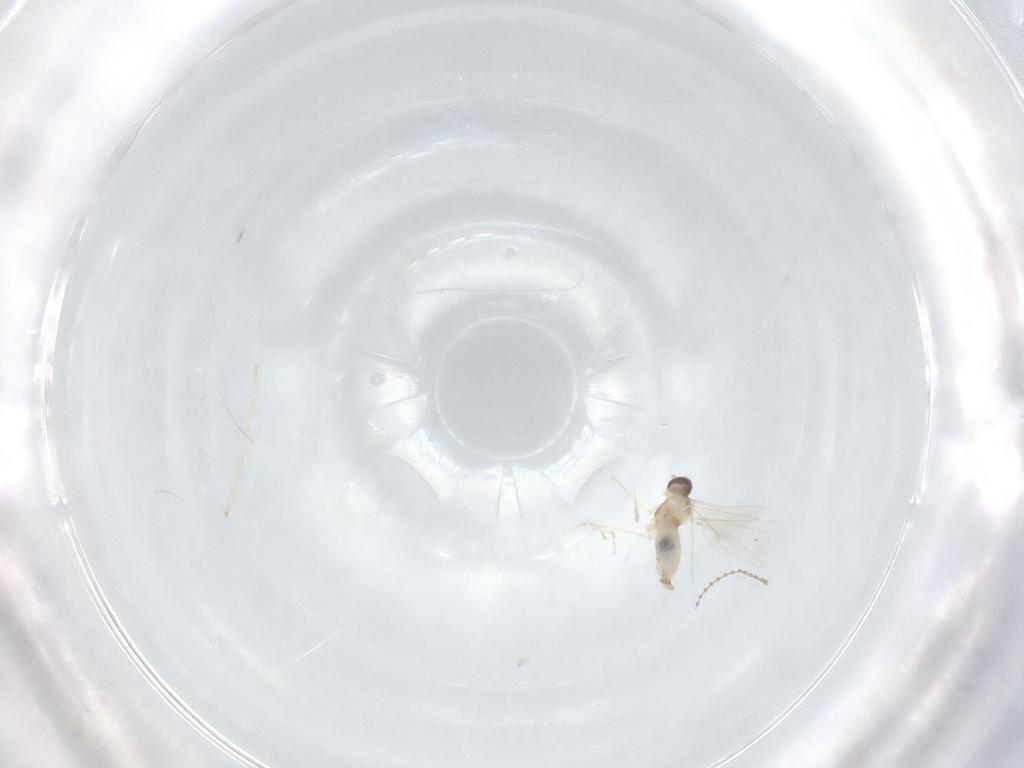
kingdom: Animalia
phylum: Arthropoda
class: Insecta
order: Diptera
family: Cecidomyiidae
